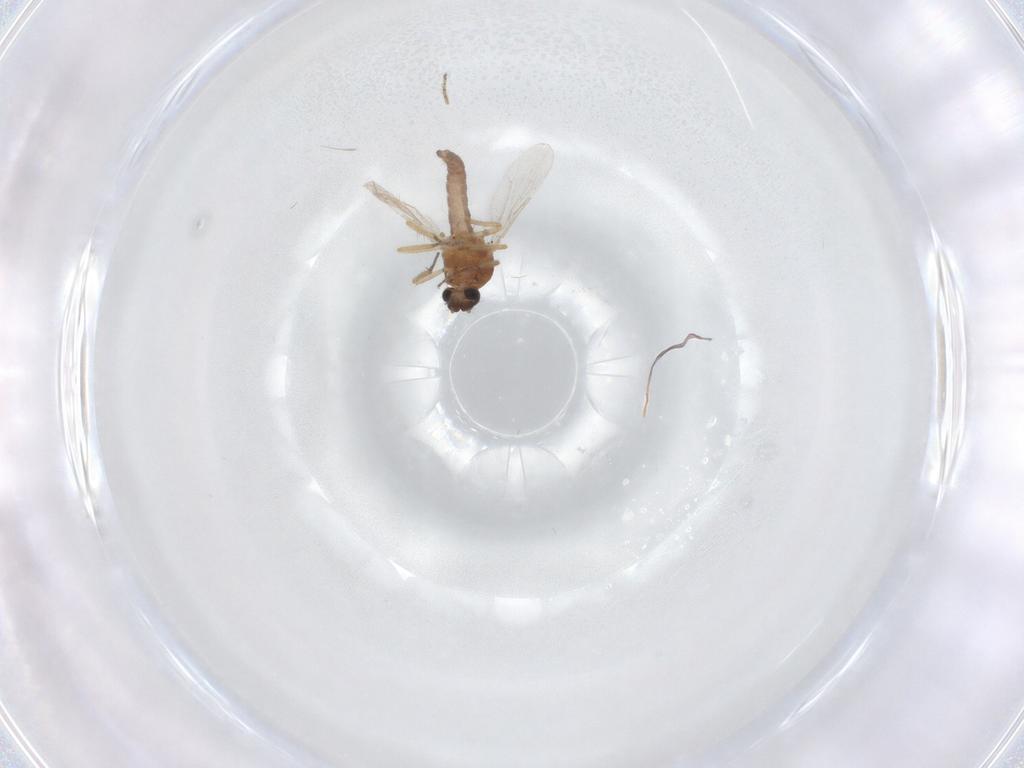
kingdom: Animalia
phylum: Arthropoda
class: Insecta
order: Diptera
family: Ceratopogonidae
